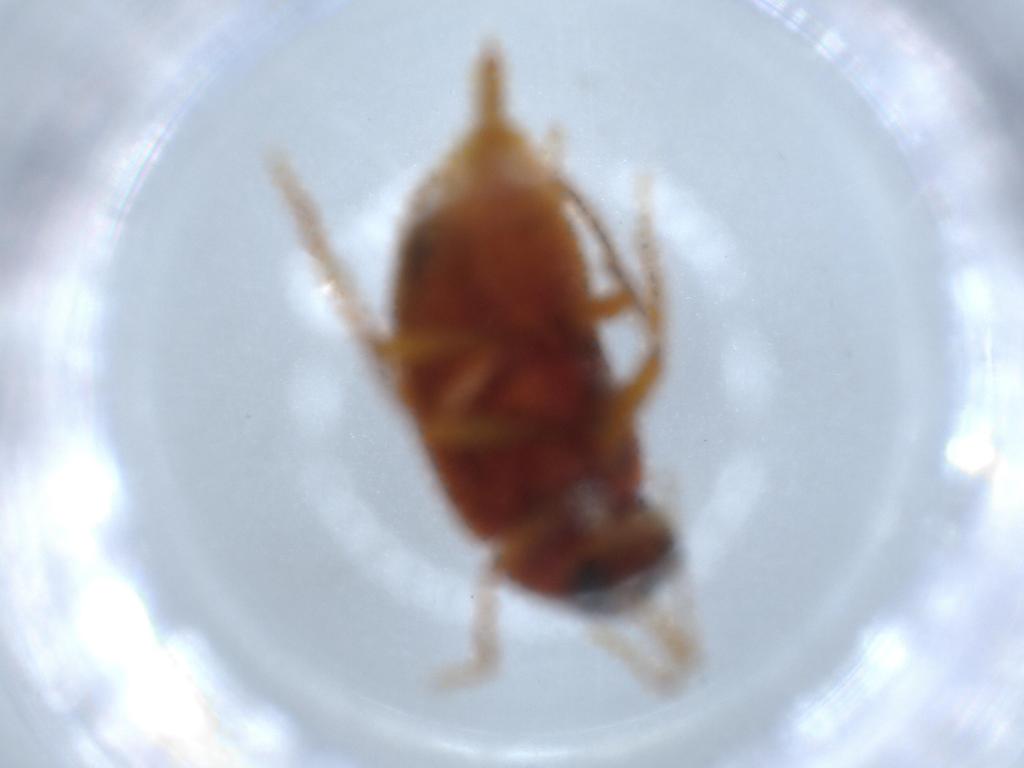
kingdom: Animalia
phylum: Arthropoda
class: Insecta
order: Coleoptera
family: Ptilodactylidae
